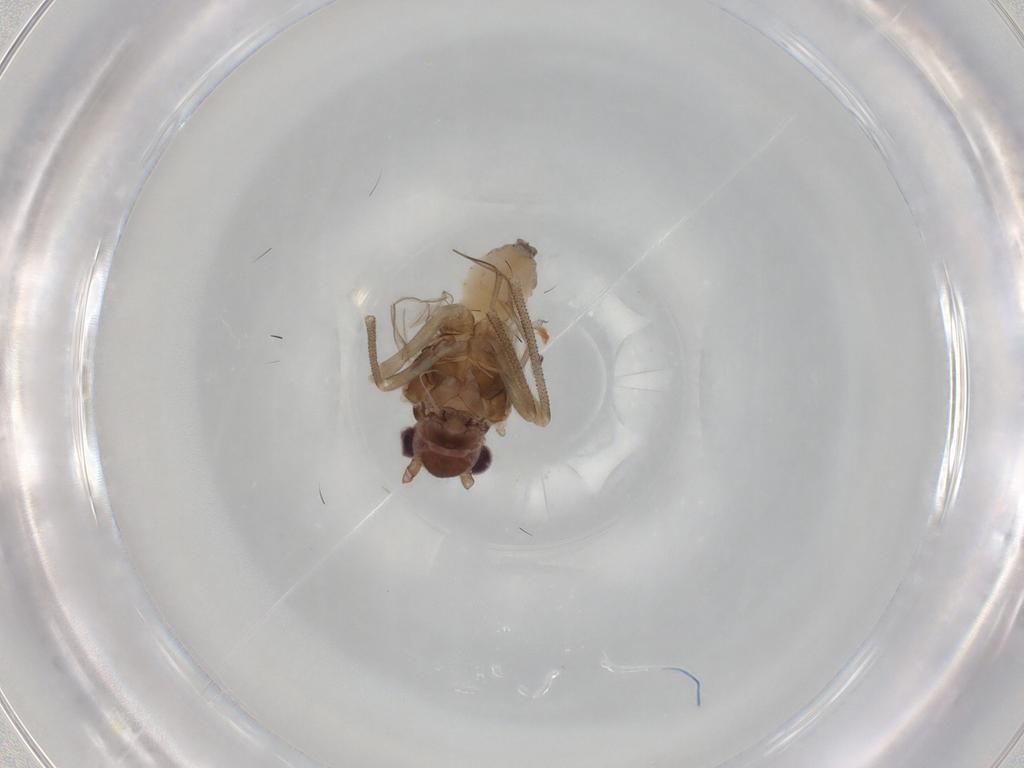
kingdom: Animalia
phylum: Arthropoda
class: Insecta
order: Psocodea
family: Stenopsocidae
